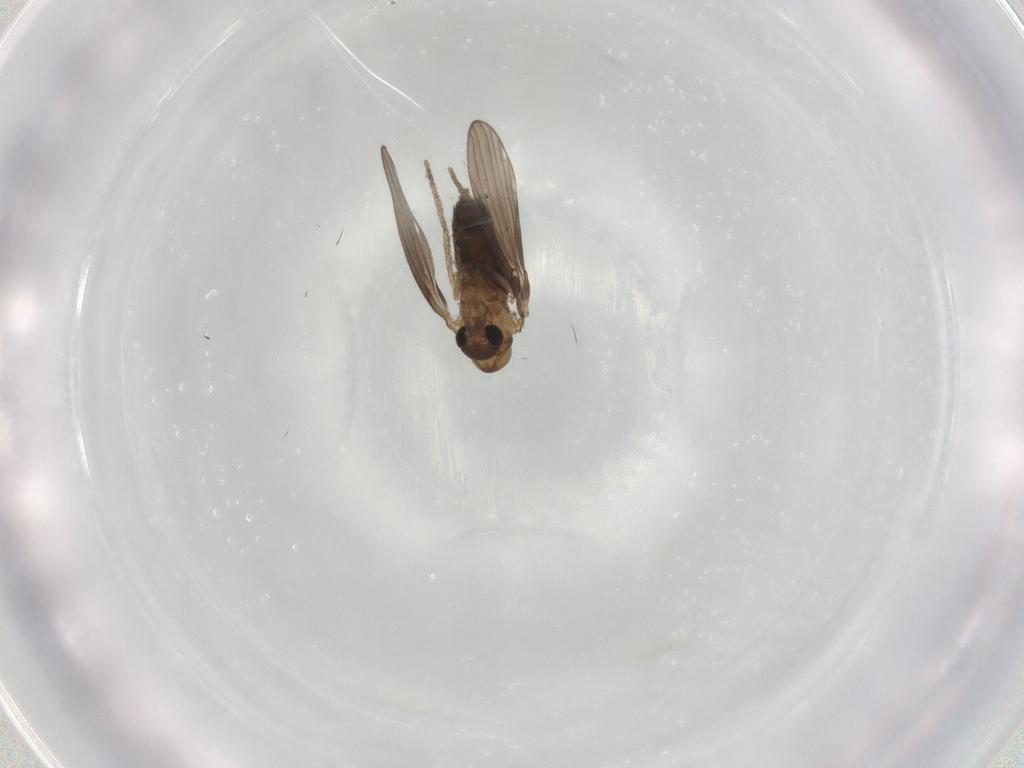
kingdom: Animalia
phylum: Arthropoda
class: Insecta
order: Diptera
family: Psychodidae
